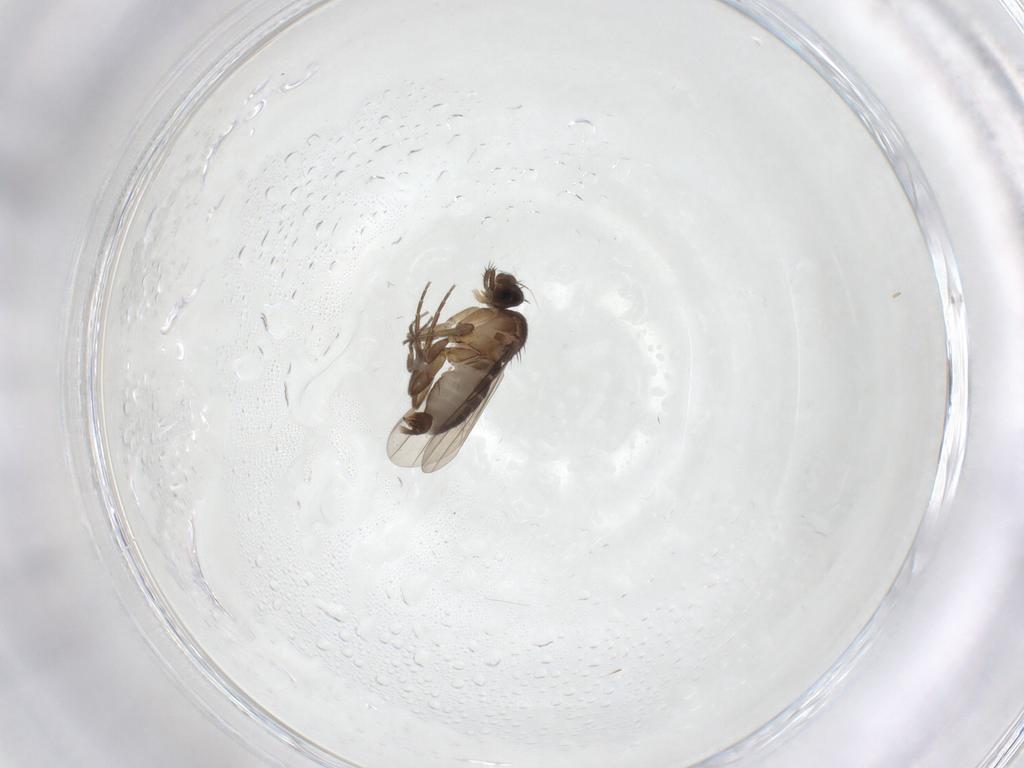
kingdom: Animalia
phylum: Arthropoda
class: Insecta
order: Diptera
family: Phoridae
